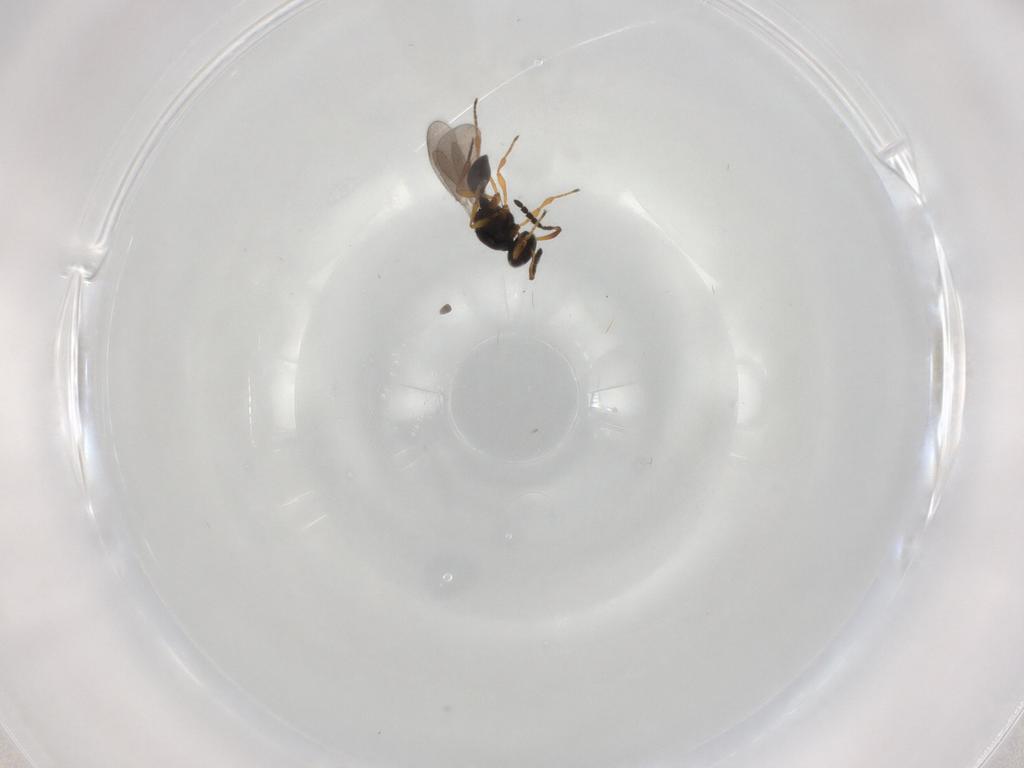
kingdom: Animalia
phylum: Arthropoda
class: Insecta
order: Hymenoptera
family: Platygastridae
